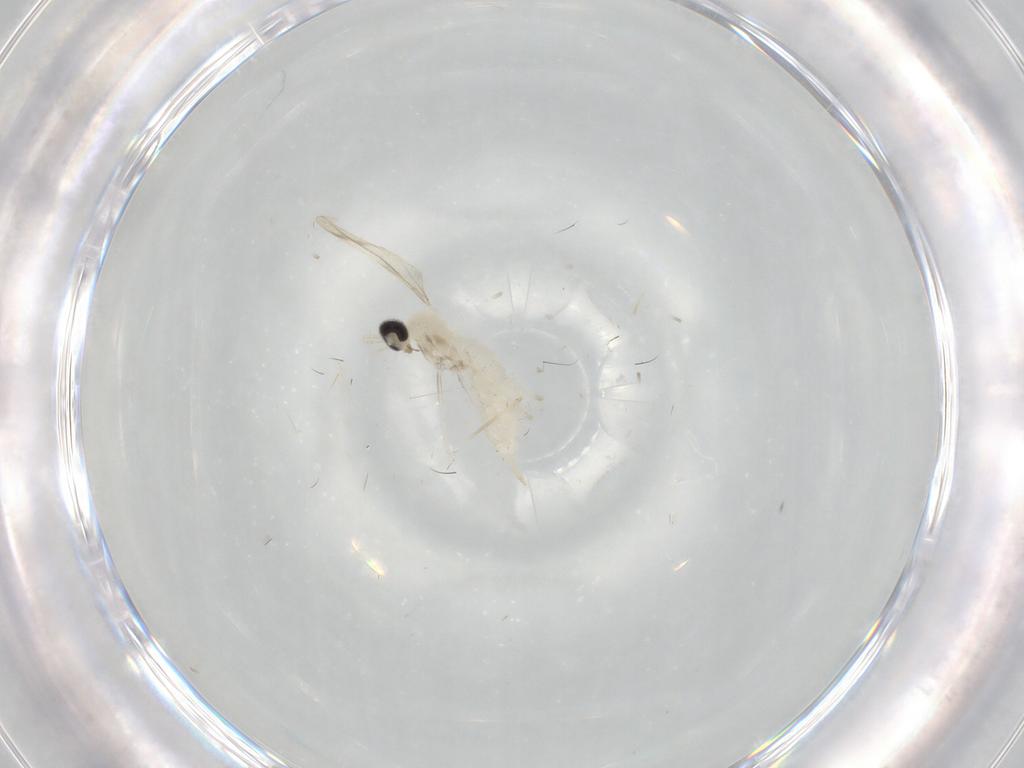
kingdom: Animalia
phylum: Arthropoda
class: Insecta
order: Diptera
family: Cecidomyiidae
